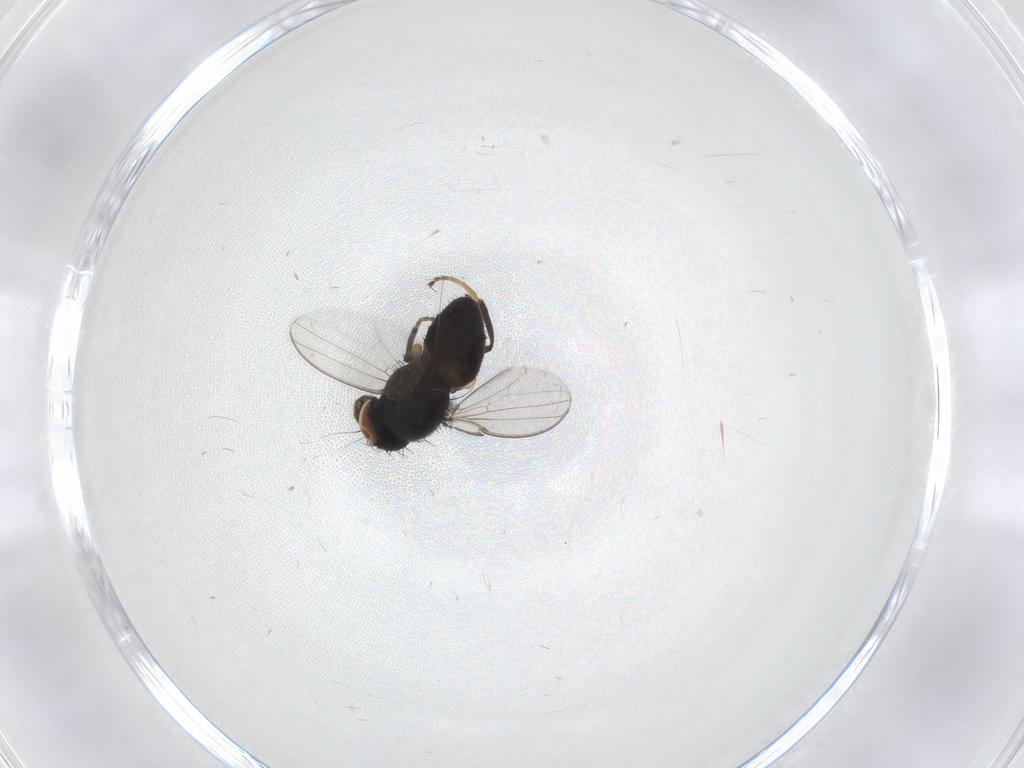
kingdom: Animalia
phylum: Arthropoda
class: Insecta
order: Diptera
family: Milichiidae
